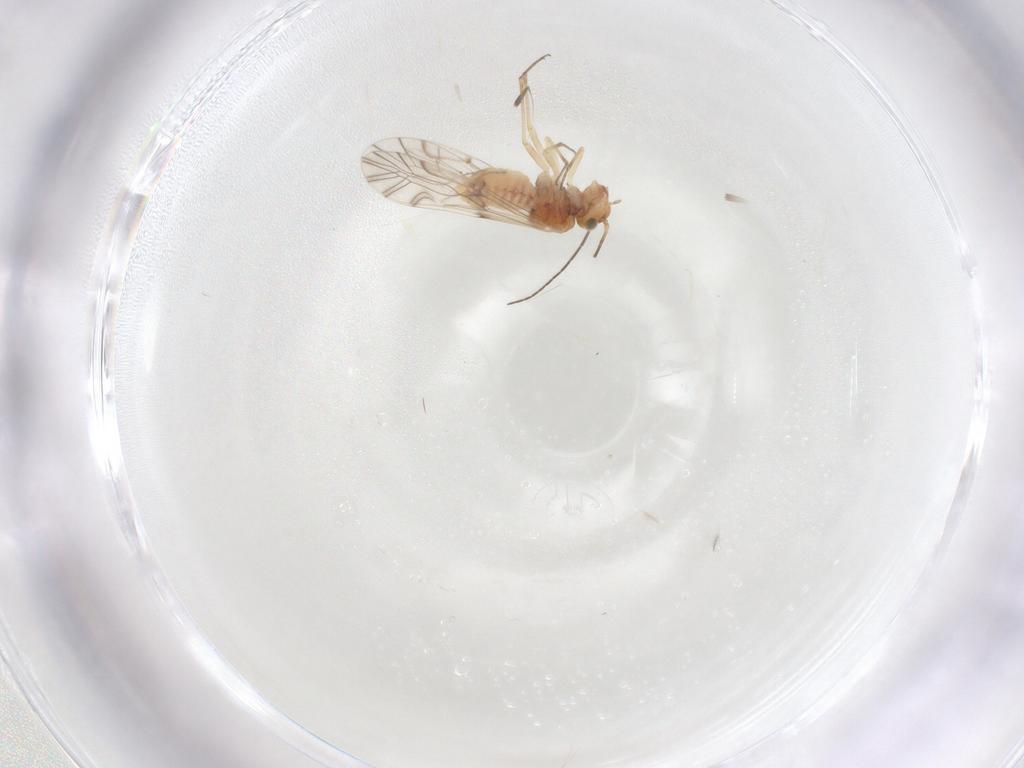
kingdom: Animalia
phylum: Arthropoda
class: Insecta
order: Psocodea
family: Lachesillidae
